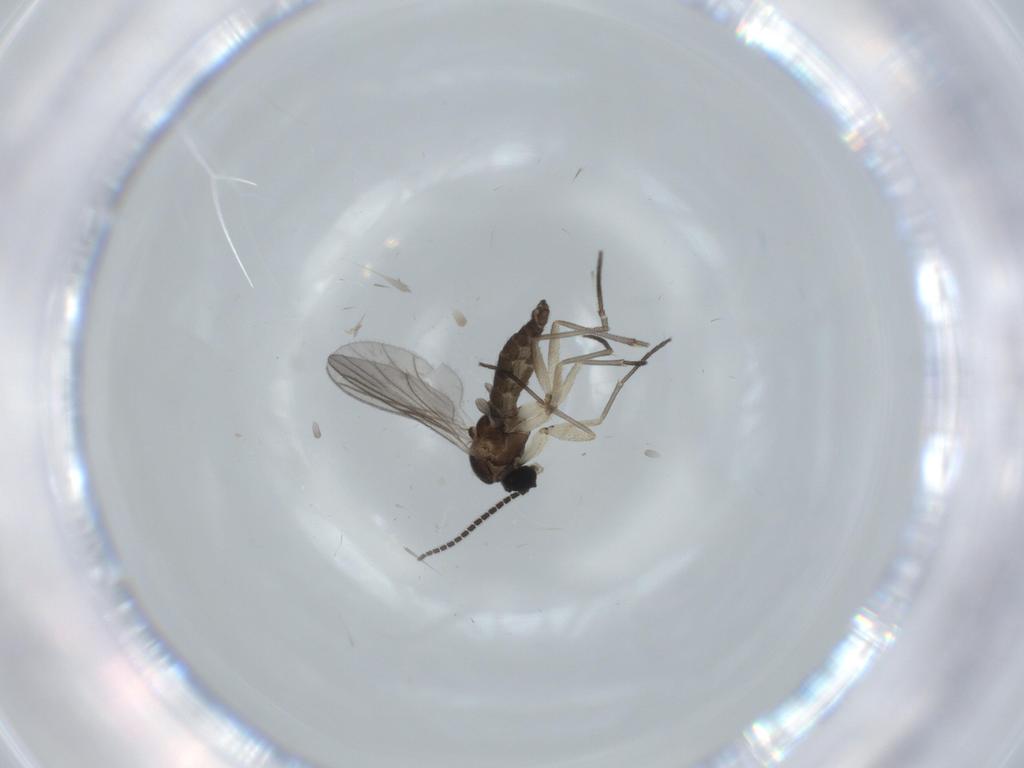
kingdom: Animalia
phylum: Arthropoda
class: Insecta
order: Diptera
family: Sciaridae
